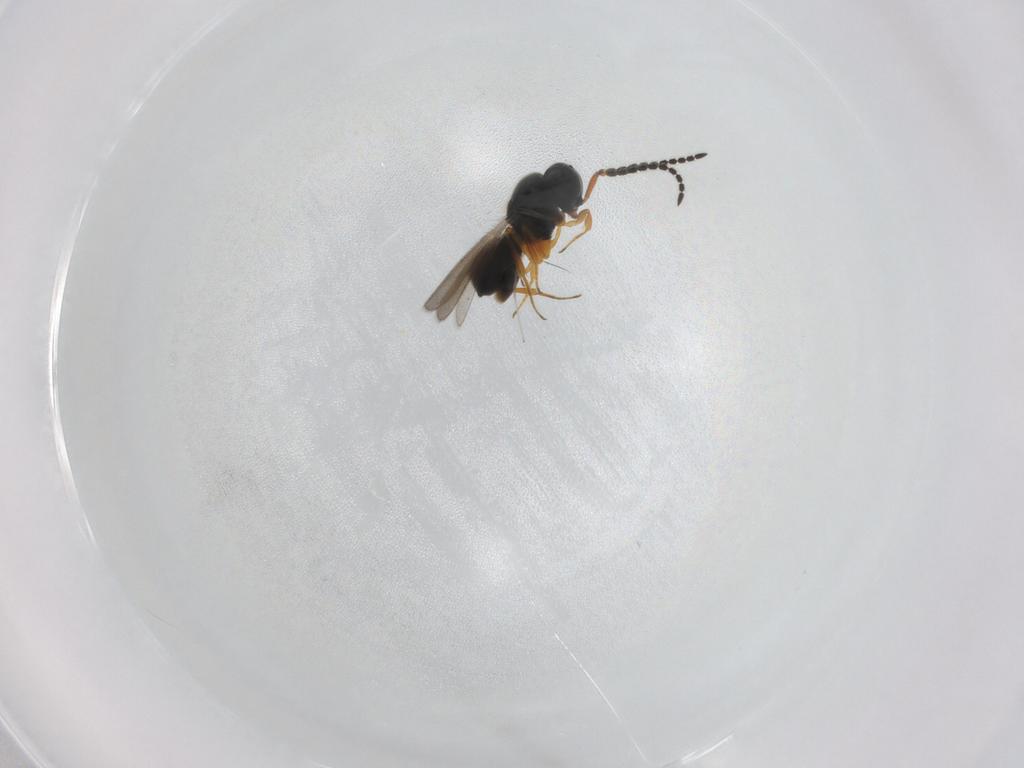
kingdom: Animalia
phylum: Arthropoda
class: Insecta
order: Hymenoptera
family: Scelionidae
